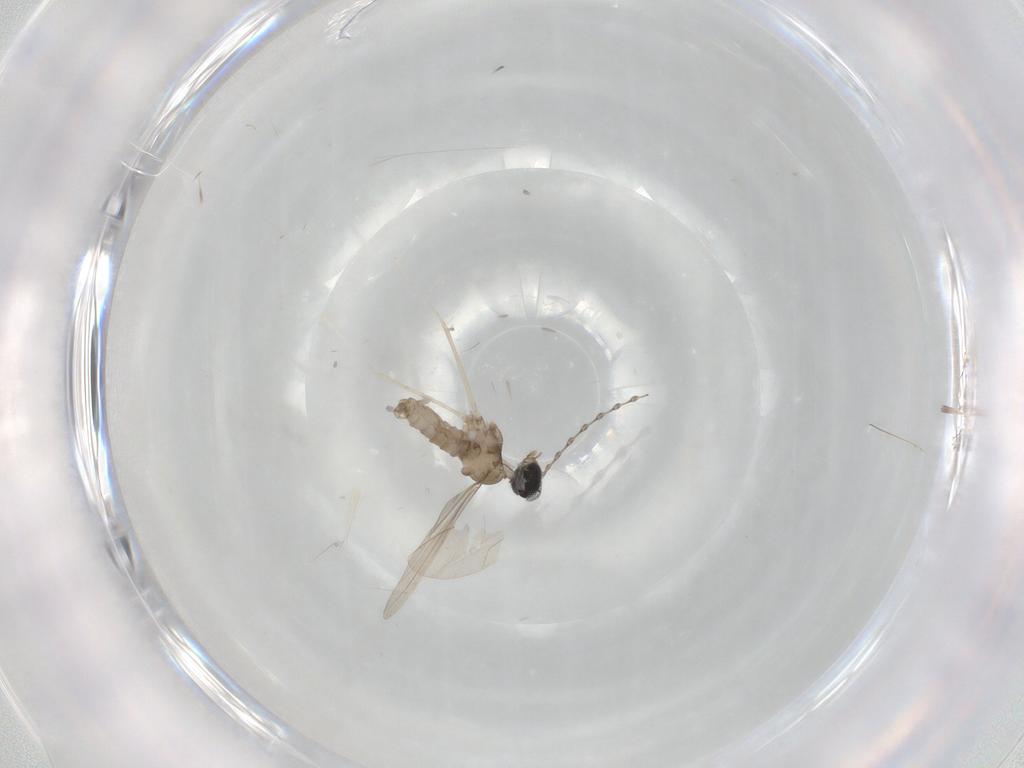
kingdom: Animalia
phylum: Arthropoda
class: Insecta
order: Diptera
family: Cecidomyiidae
